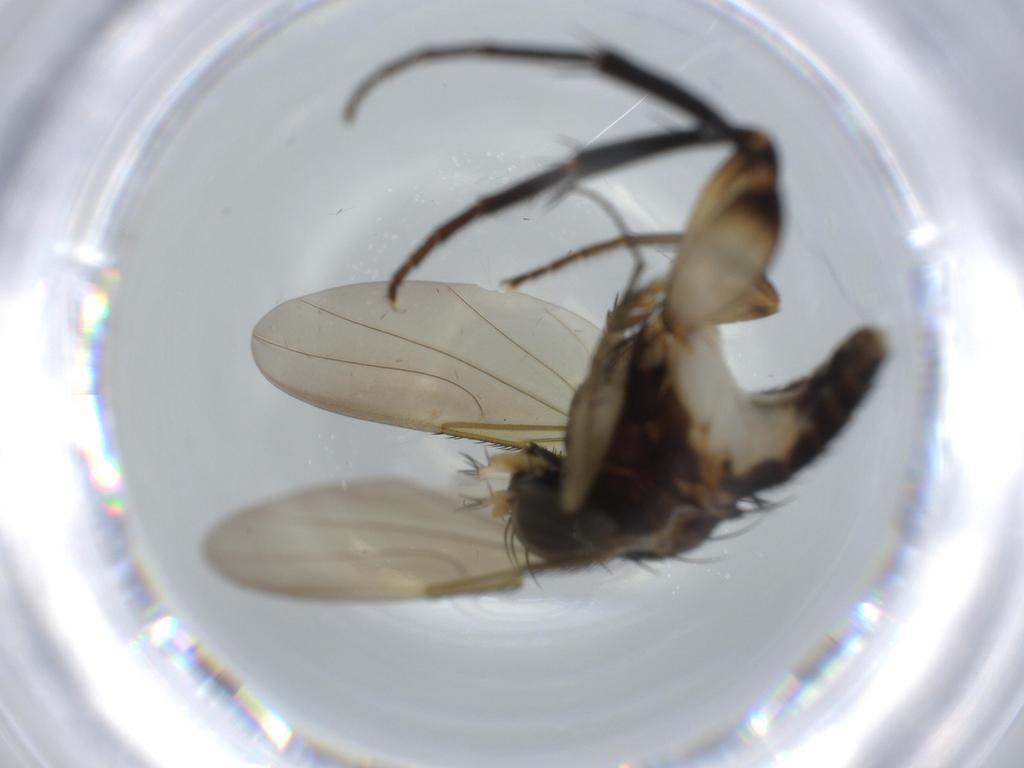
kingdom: Animalia
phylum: Arthropoda
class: Insecta
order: Diptera
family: Phoridae
